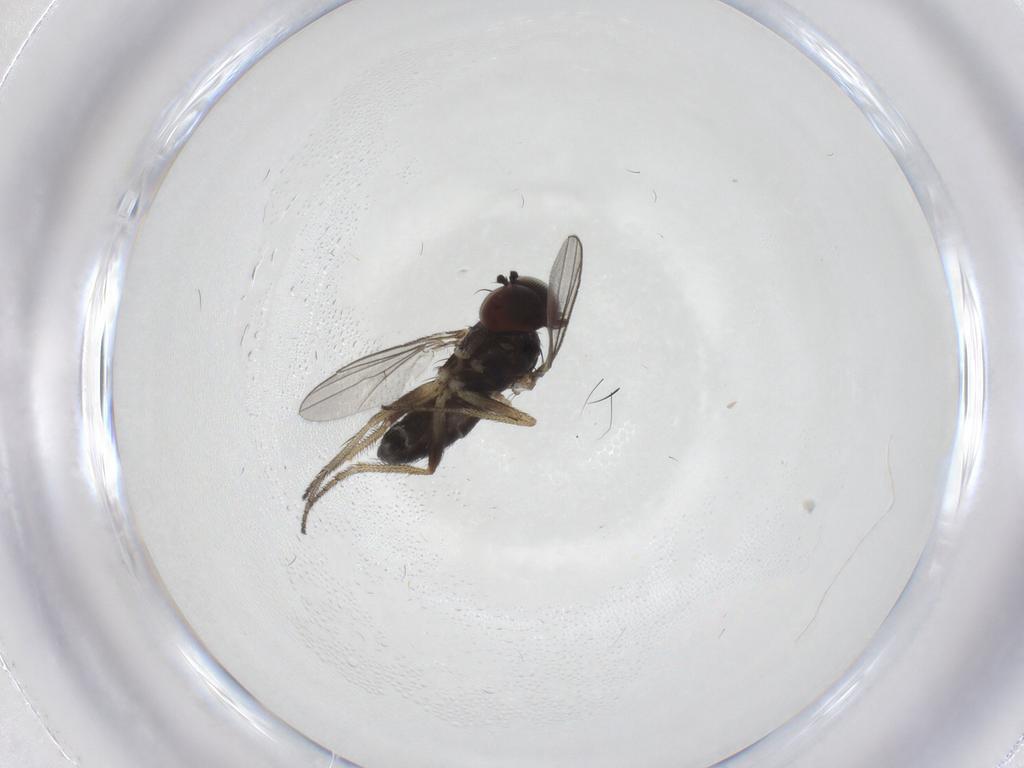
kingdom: Animalia
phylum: Arthropoda
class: Insecta
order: Diptera
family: Dolichopodidae
